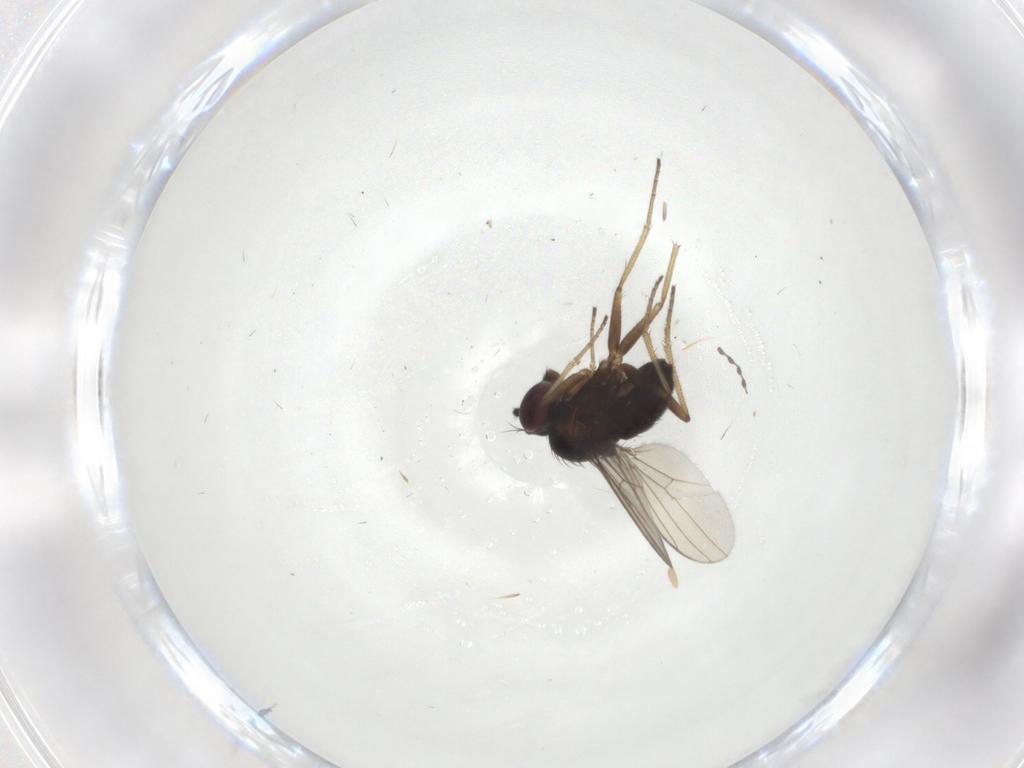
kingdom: Animalia
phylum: Arthropoda
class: Insecta
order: Diptera
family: Dolichopodidae
